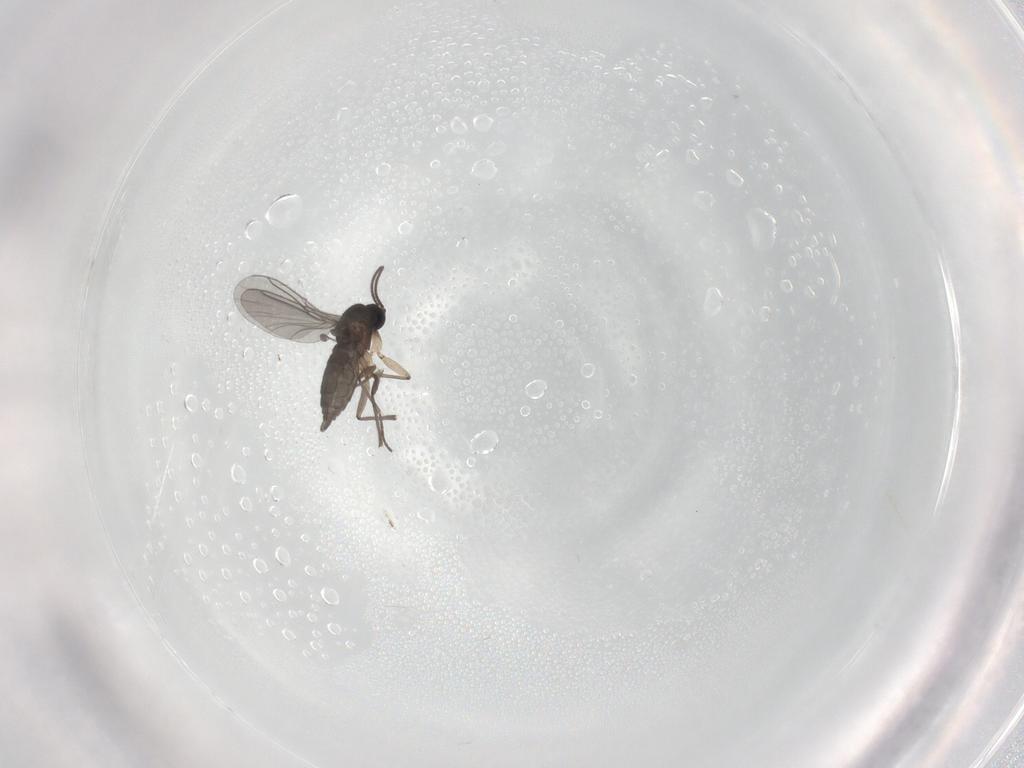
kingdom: Animalia
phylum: Arthropoda
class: Insecta
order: Diptera
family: Sciaridae
